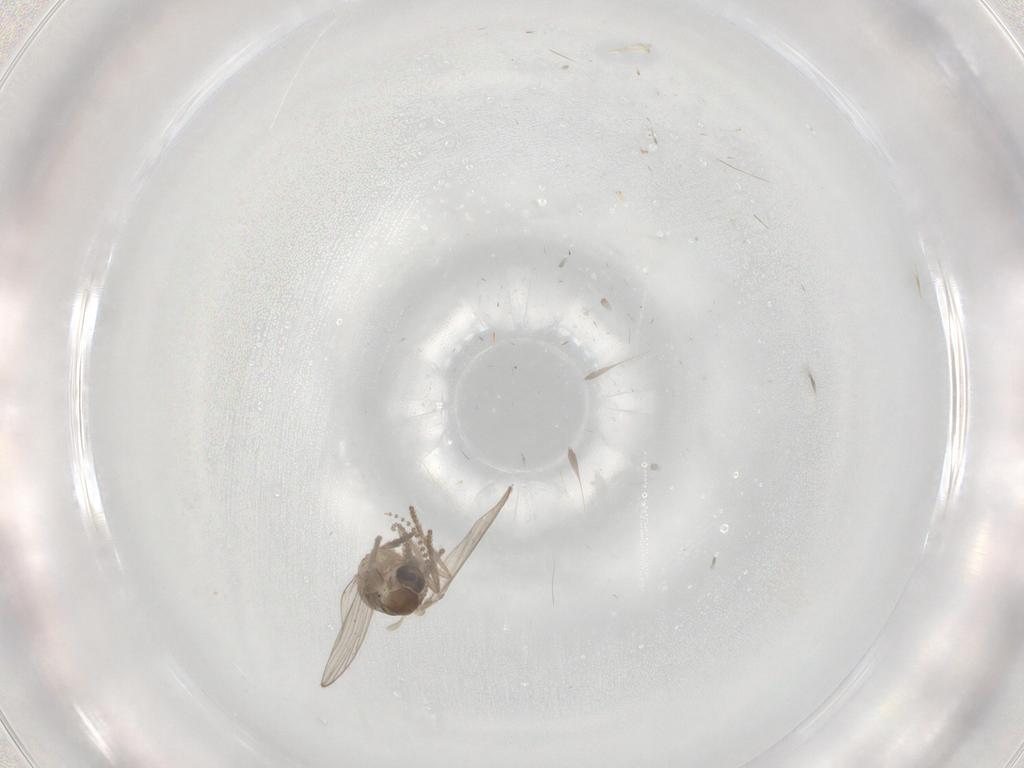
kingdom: Animalia
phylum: Arthropoda
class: Insecta
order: Diptera
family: Psychodidae
